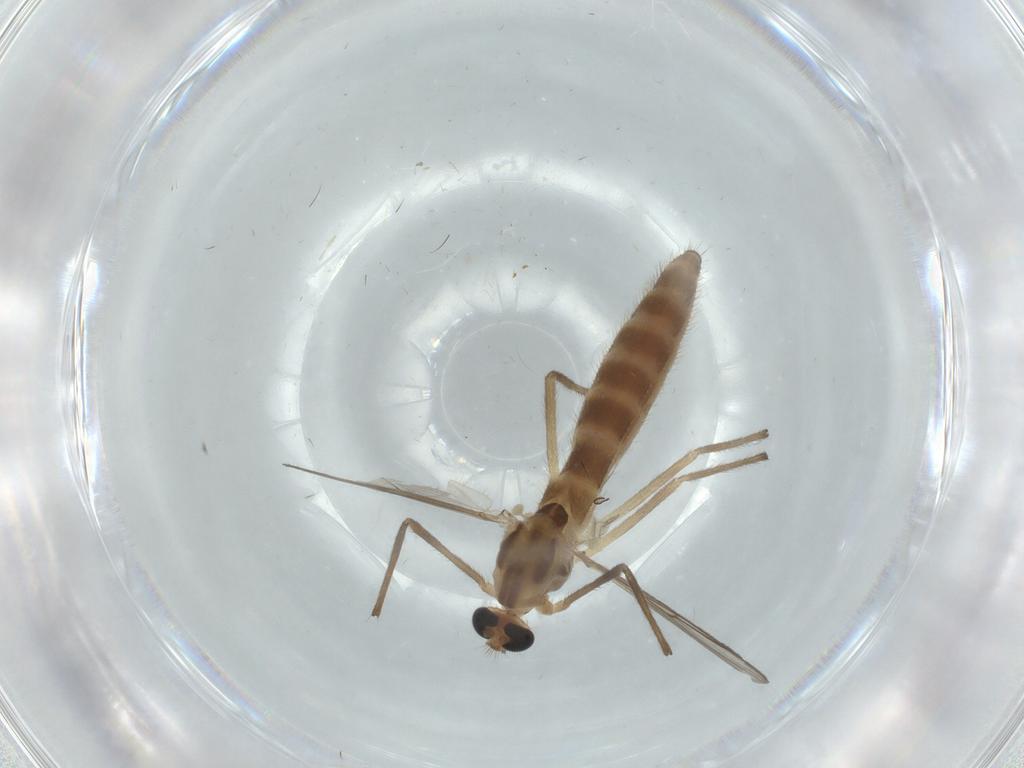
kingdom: Animalia
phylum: Arthropoda
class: Insecta
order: Diptera
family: Chironomidae
